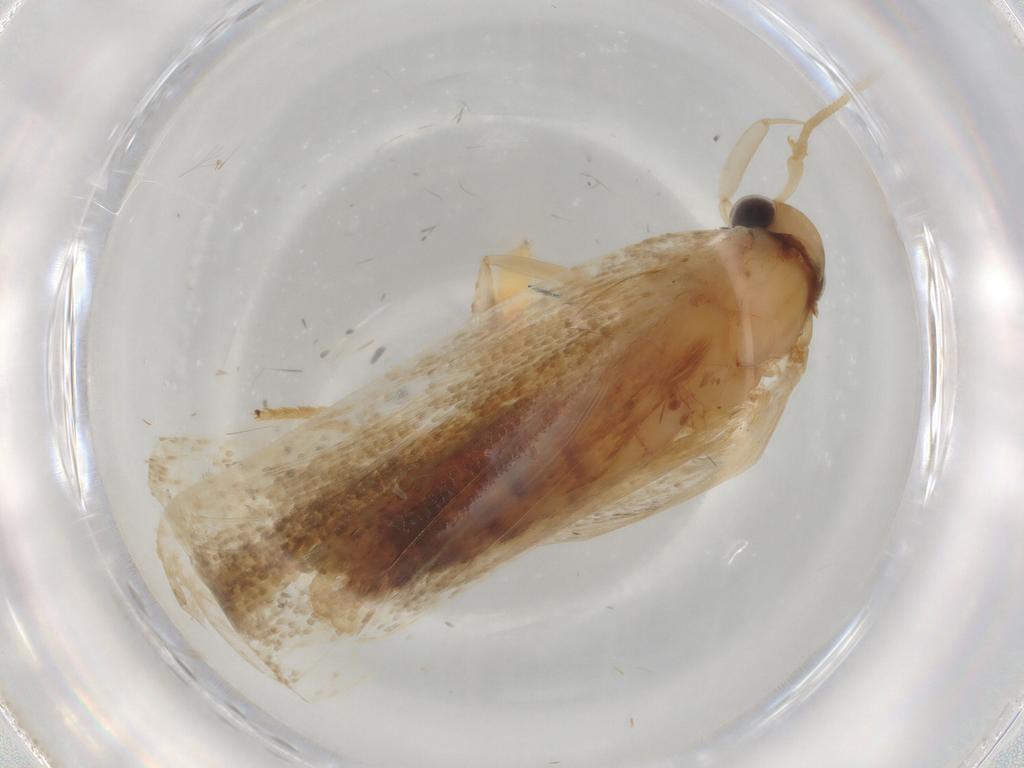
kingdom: Animalia
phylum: Arthropoda
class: Insecta
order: Lepidoptera
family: Lecithoceridae
